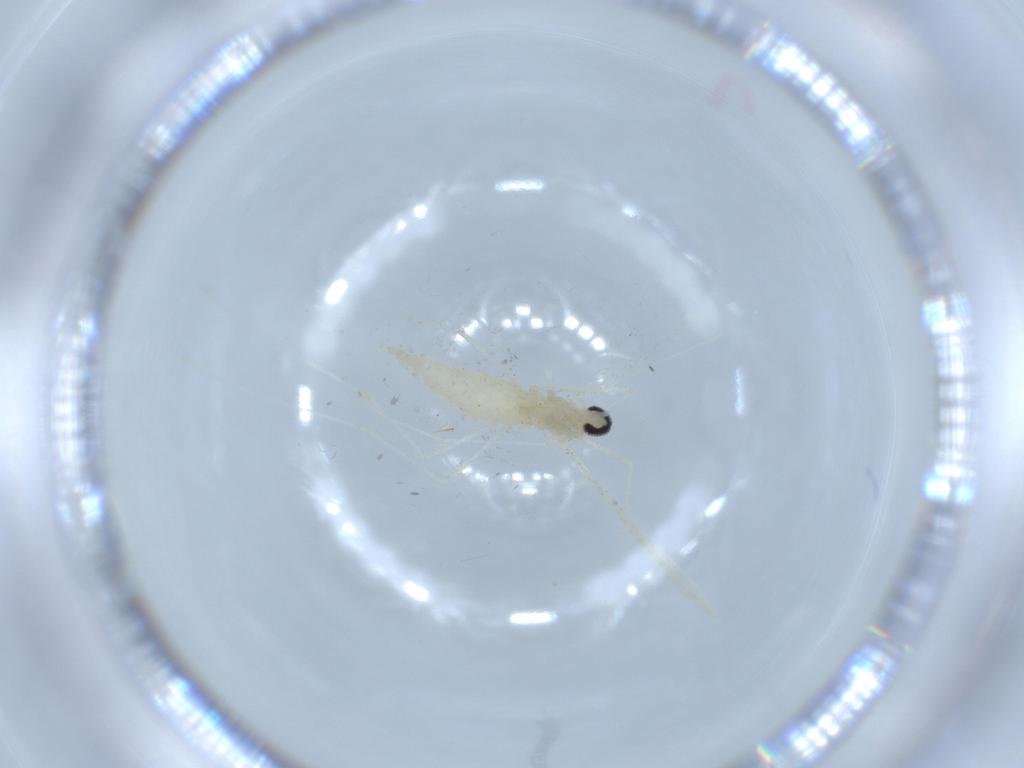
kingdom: Animalia
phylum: Arthropoda
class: Insecta
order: Diptera
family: Cecidomyiidae
